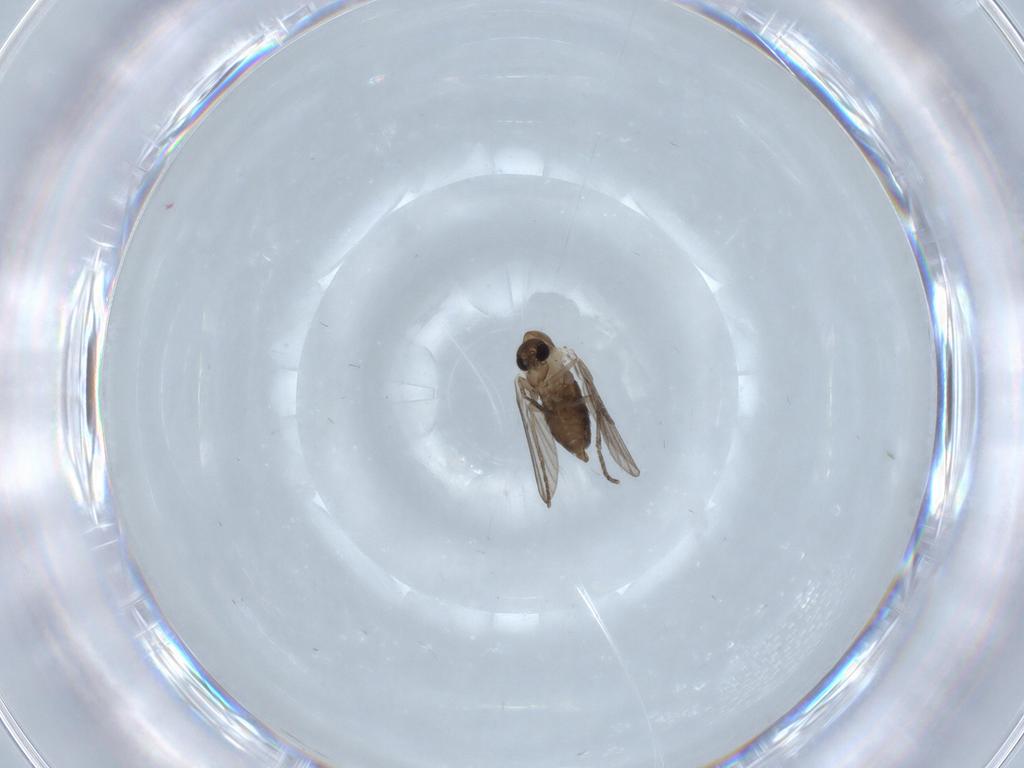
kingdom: Animalia
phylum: Arthropoda
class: Insecta
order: Diptera
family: Psychodidae
